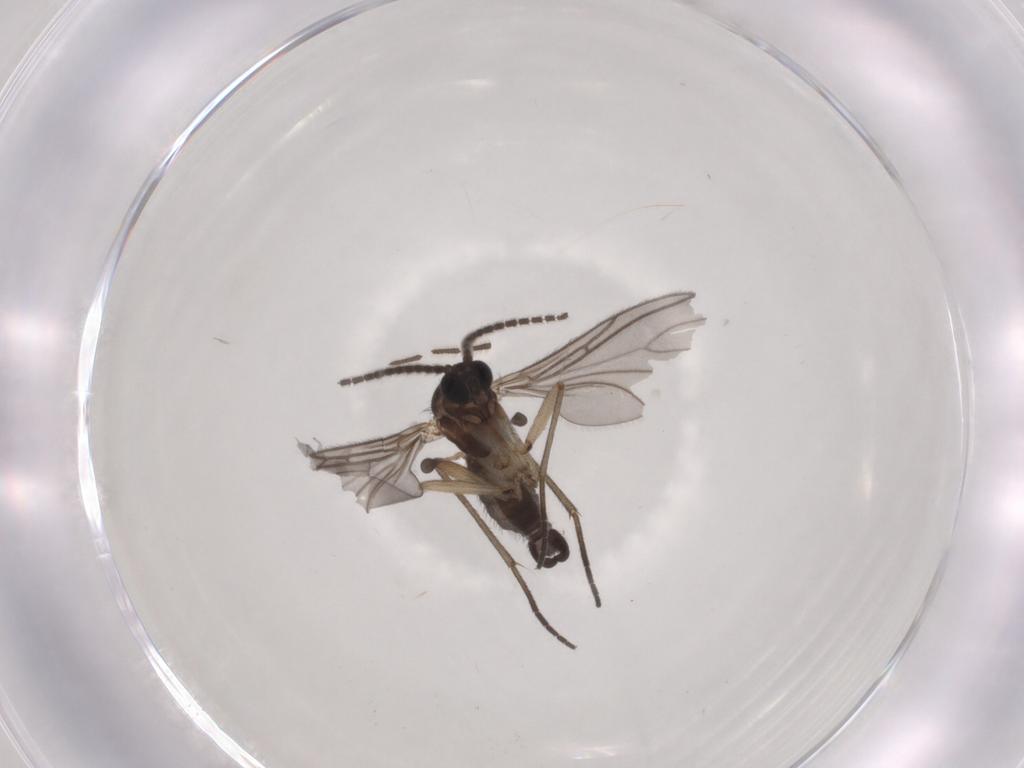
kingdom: Animalia
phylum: Arthropoda
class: Insecta
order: Diptera
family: Sciaridae
